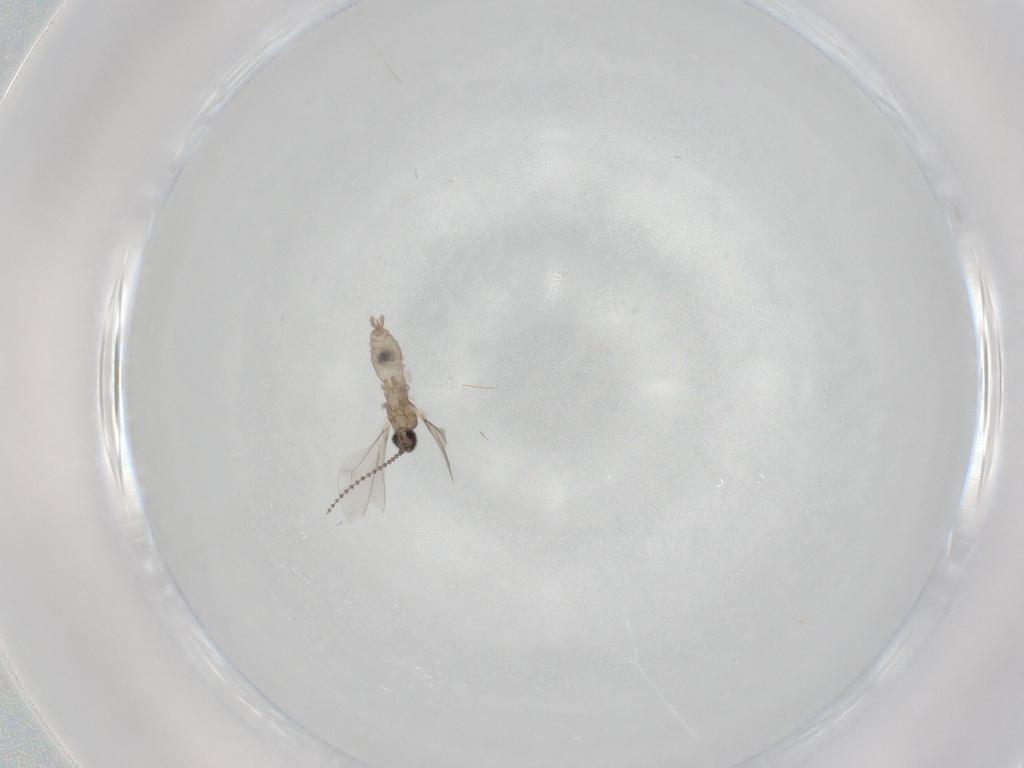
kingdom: Animalia
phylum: Arthropoda
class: Insecta
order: Diptera
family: Cecidomyiidae
